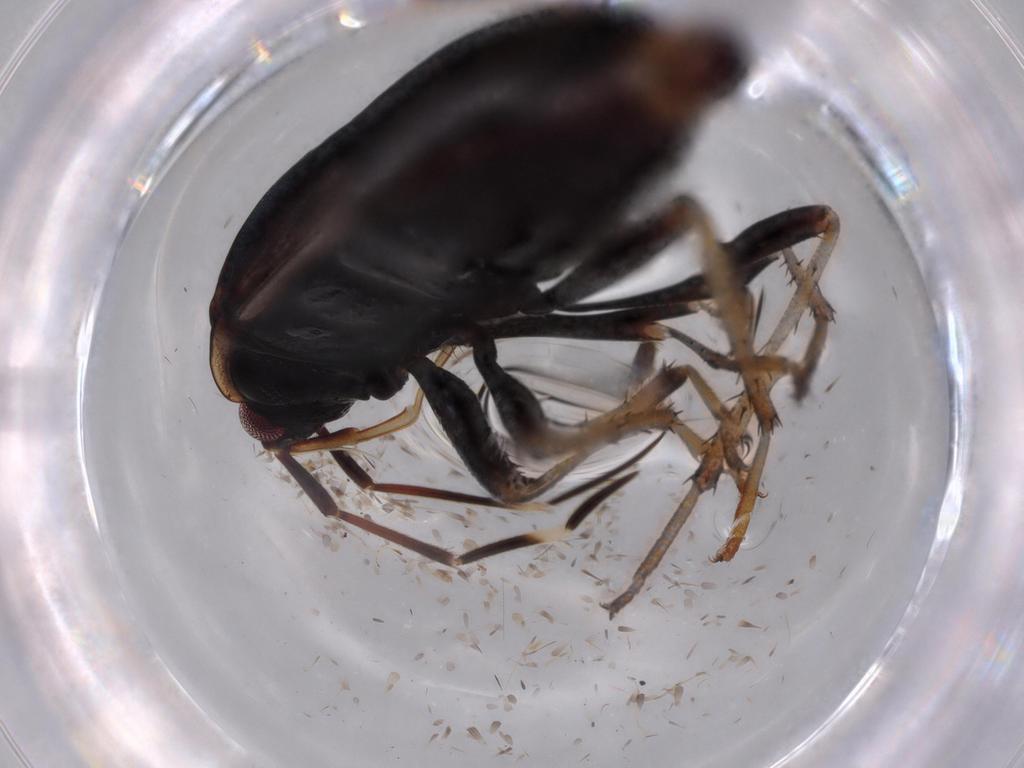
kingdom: Animalia
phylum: Arthropoda
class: Insecta
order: Hemiptera
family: Rhyparochromidae
